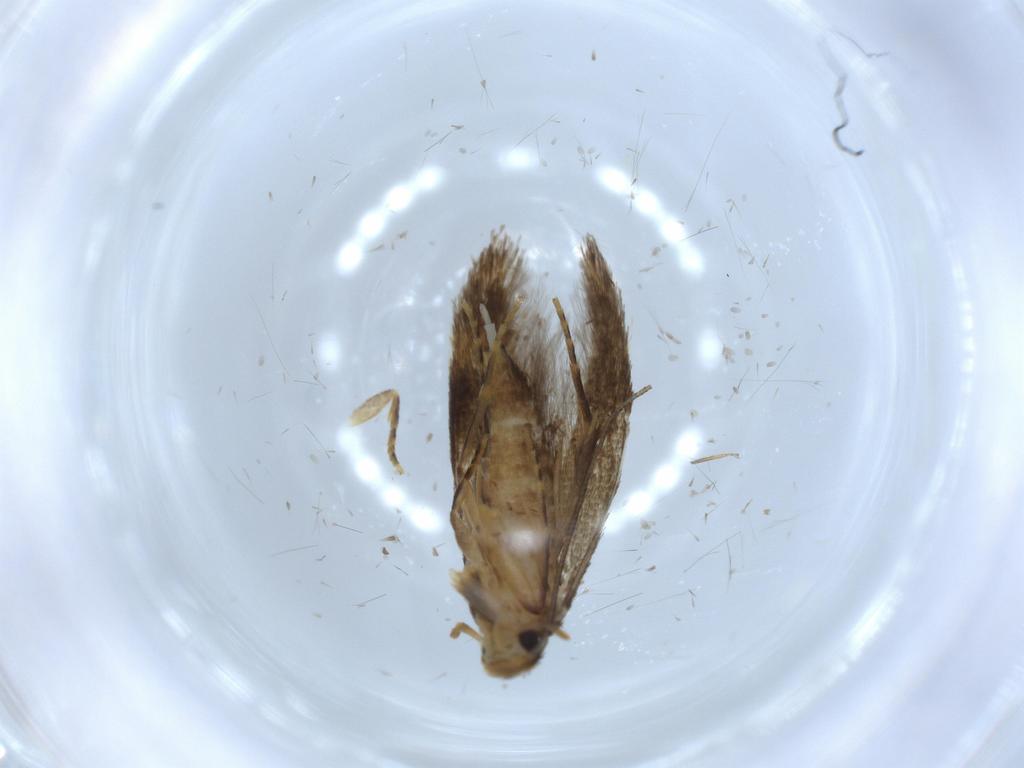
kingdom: Animalia
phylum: Arthropoda
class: Insecta
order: Lepidoptera
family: Tineidae
